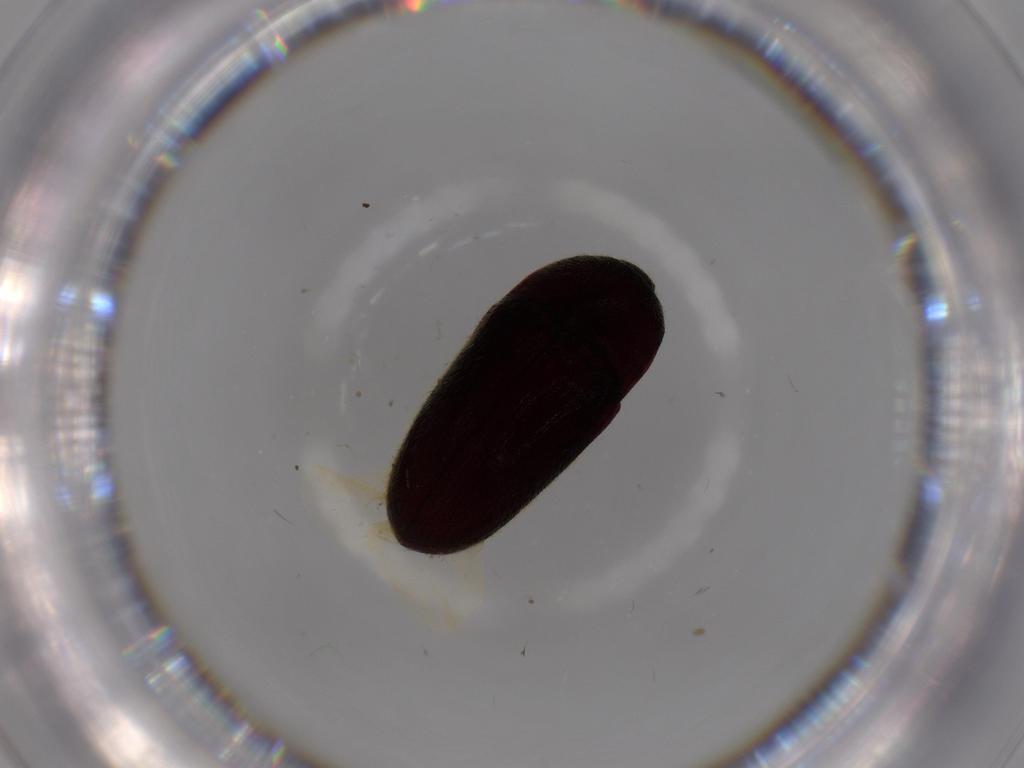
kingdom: Animalia
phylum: Arthropoda
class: Insecta
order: Coleoptera
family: Throscidae
